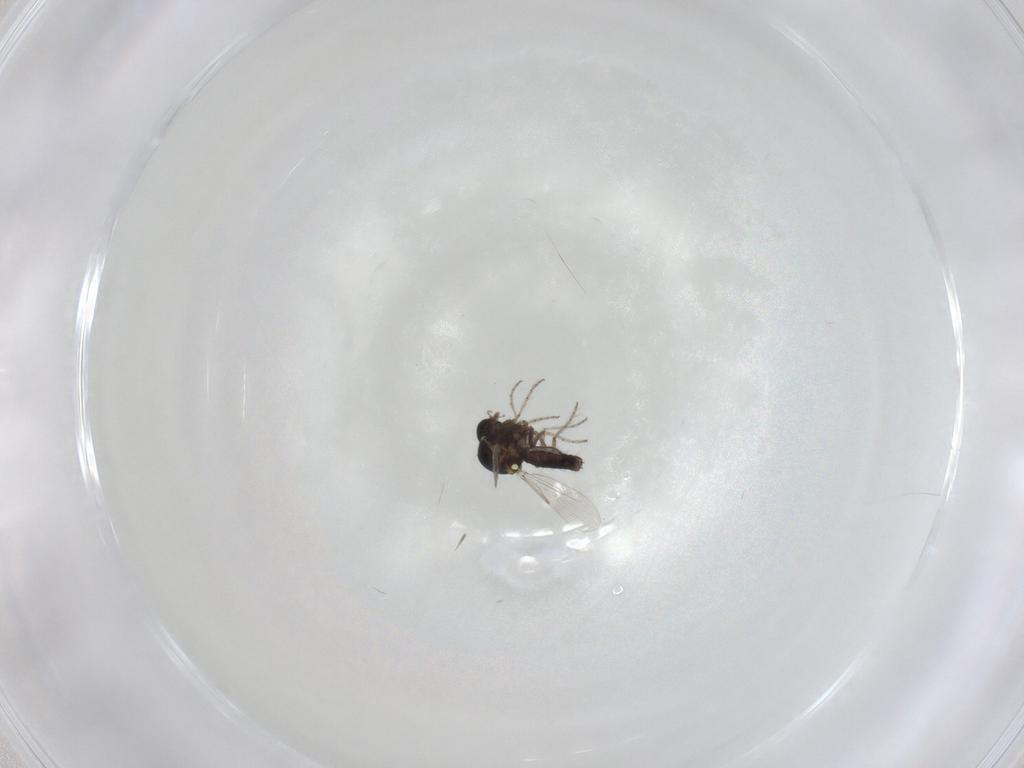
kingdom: Animalia
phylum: Arthropoda
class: Insecta
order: Diptera
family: Ceratopogonidae
